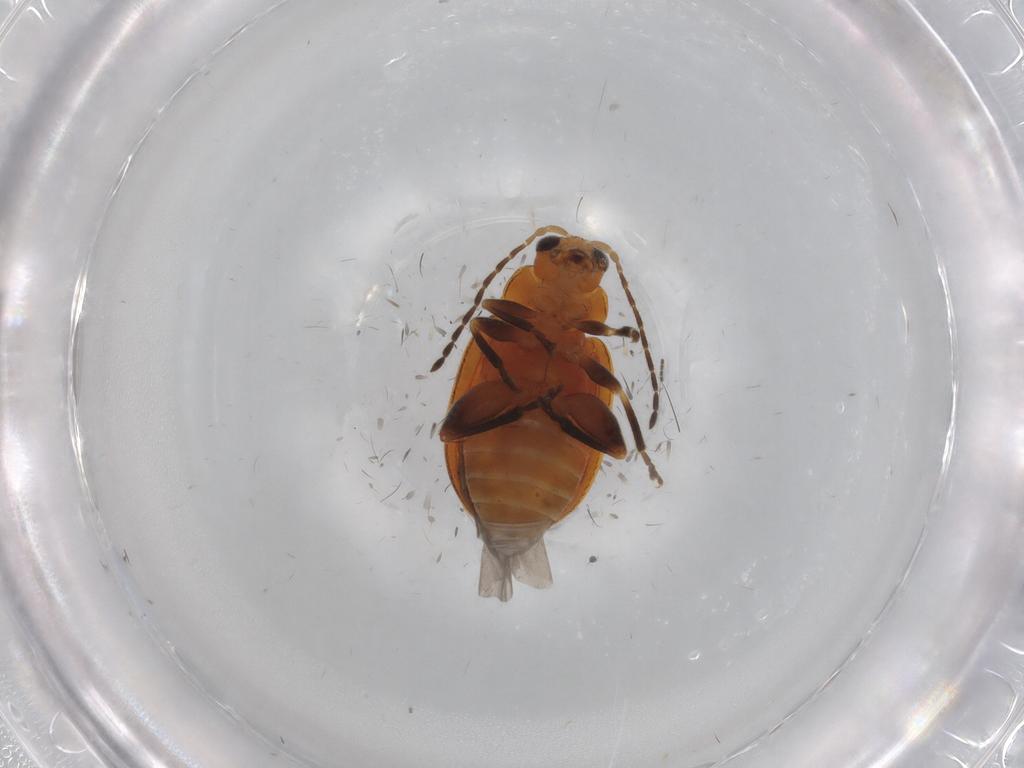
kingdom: Animalia
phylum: Arthropoda
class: Insecta
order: Coleoptera
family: Chrysomelidae
